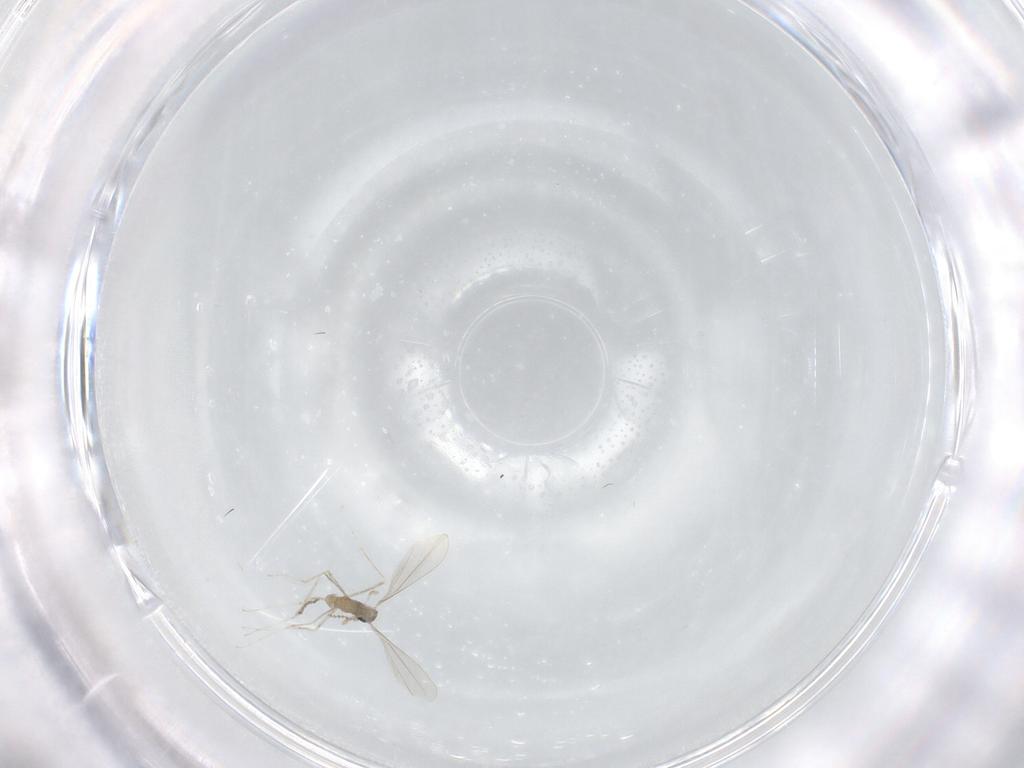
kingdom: Animalia
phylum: Arthropoda
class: Insecta
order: Diptera
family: Cecidomyiidae
